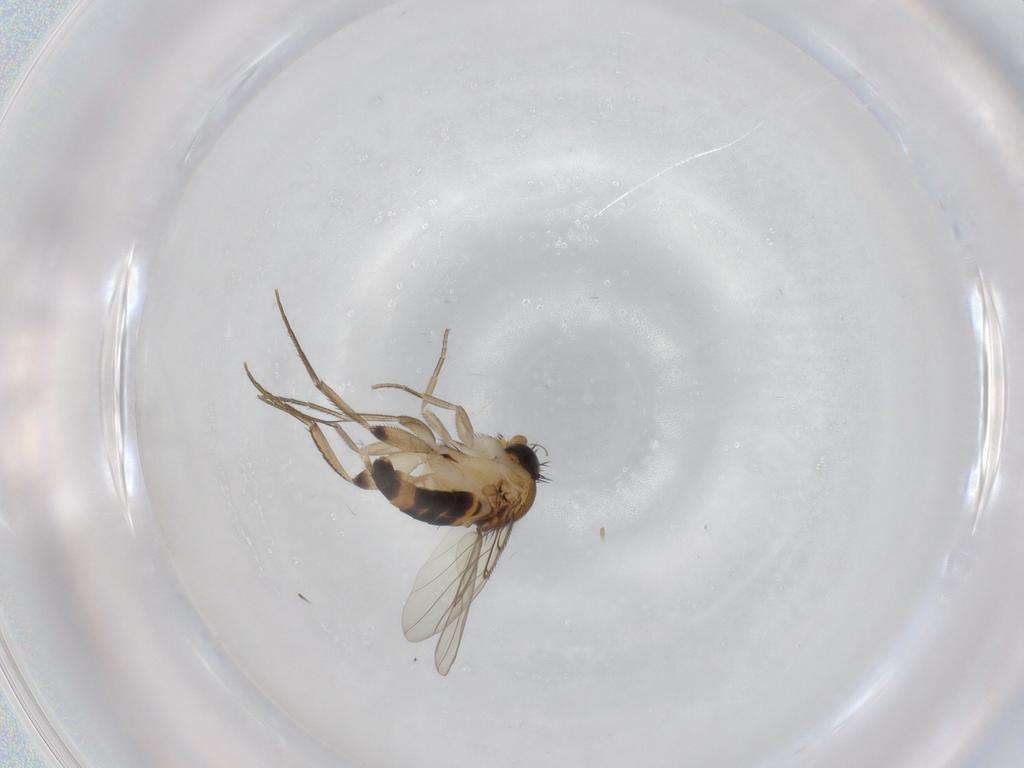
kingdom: Animalia
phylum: Arthropoda
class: Insecta
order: Diptera
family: Phoridae
